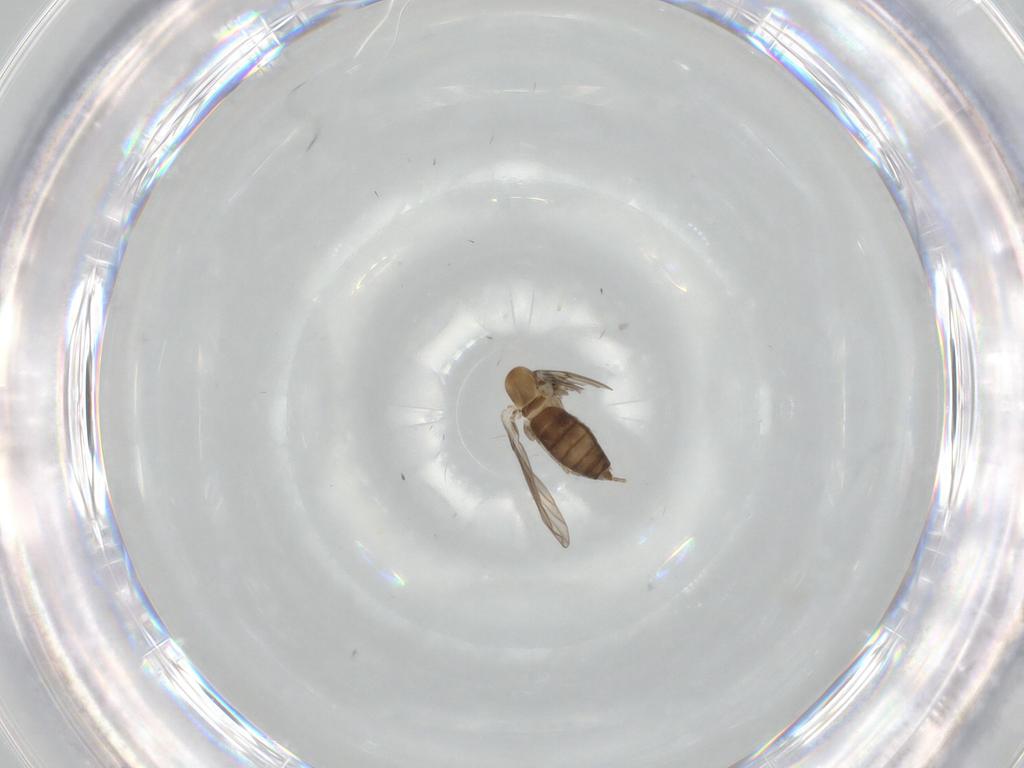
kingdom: Animalia
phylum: Arthropoda
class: Insecta
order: Diptera
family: Psychodidae
